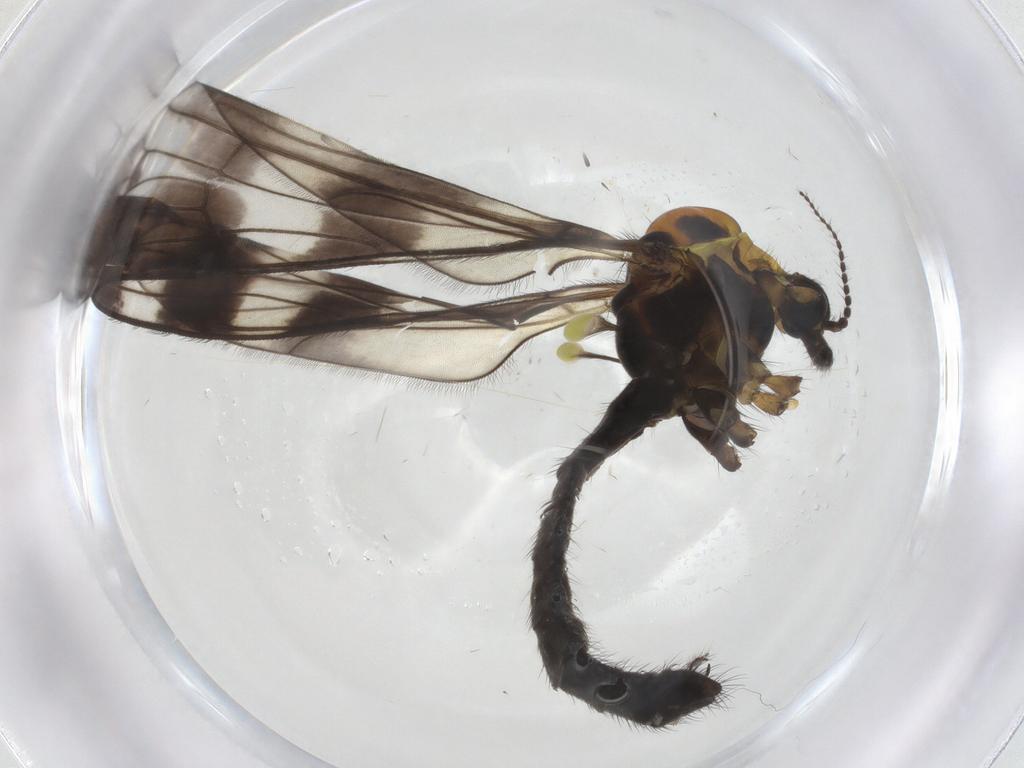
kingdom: Animalia
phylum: Arthropoda
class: Insecta
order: Diptera
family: Limoniidae
